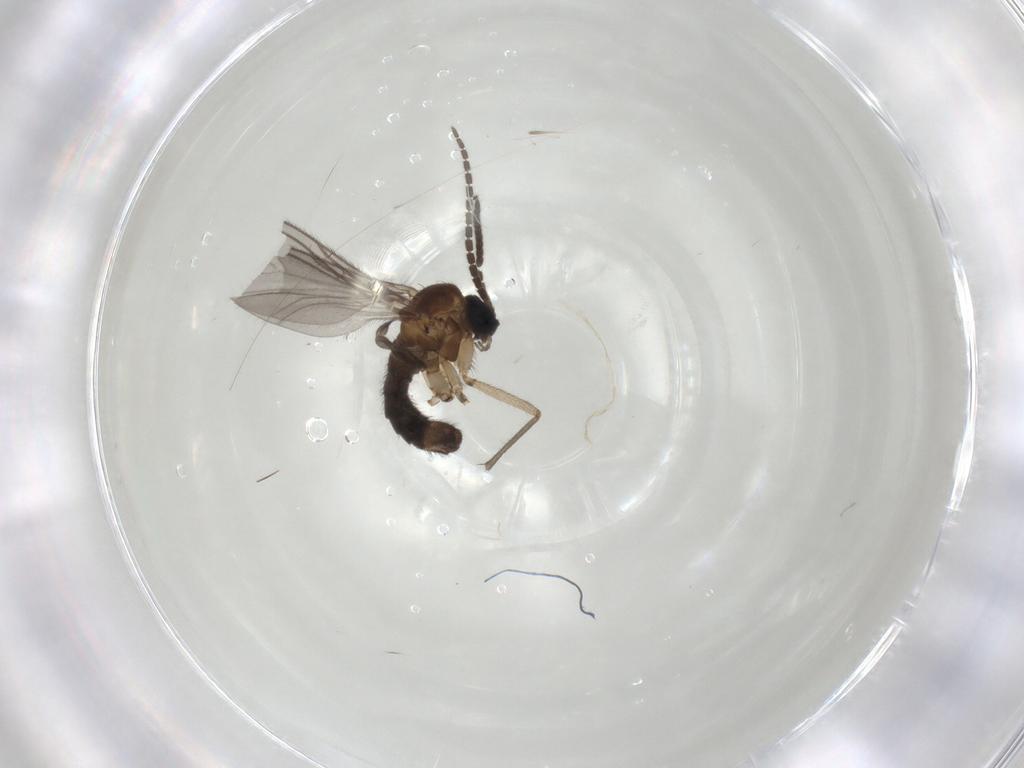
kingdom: Animalia
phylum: Arthropoda
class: Insecta
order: Diptera
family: Sciaridae
